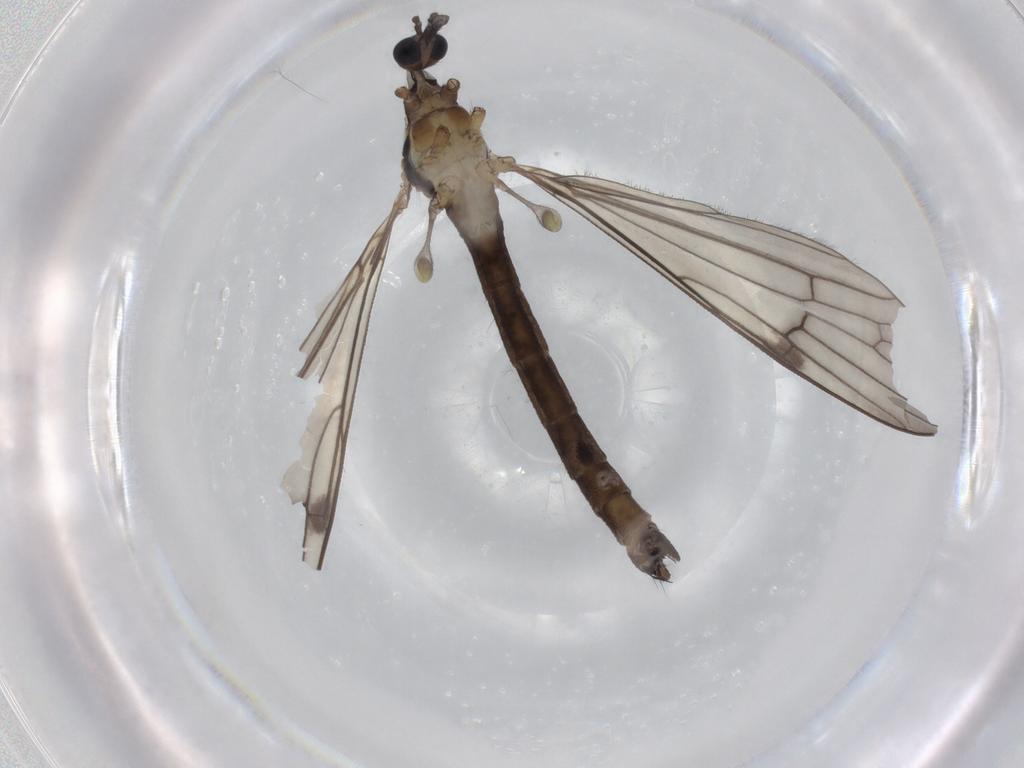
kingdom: Animalia
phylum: Arthropoda
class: Insecta
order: Diptera
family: Limoniidae
